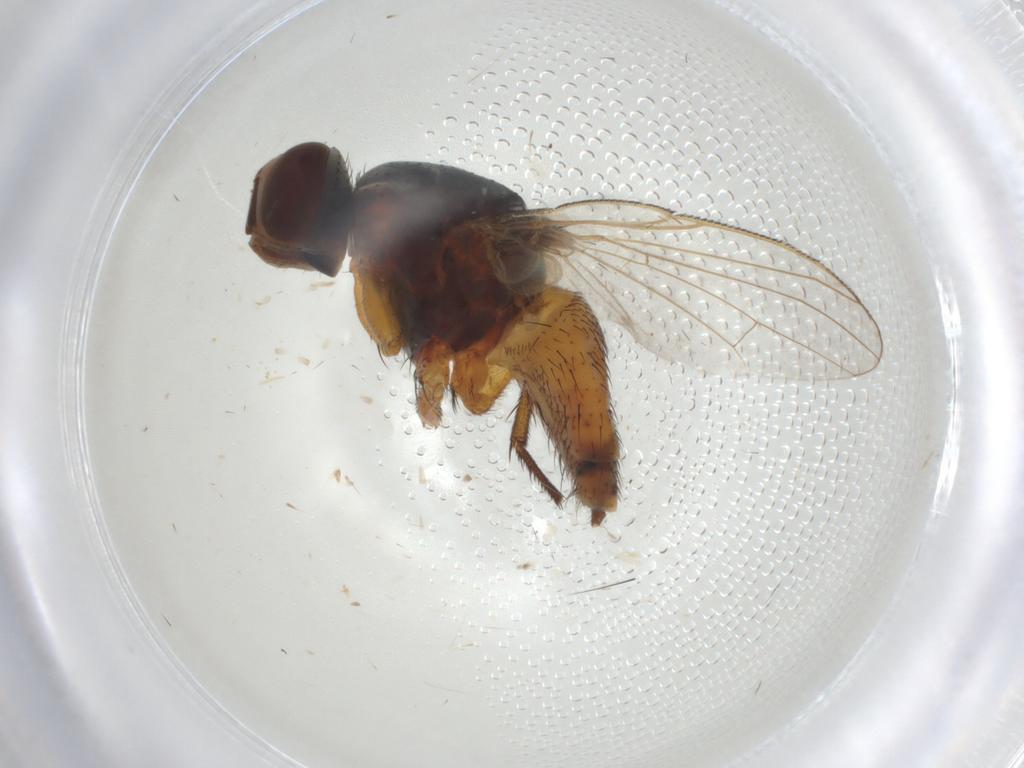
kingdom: Animalia
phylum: Arthropoda
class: Insecta
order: Diptera
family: Muscidae
